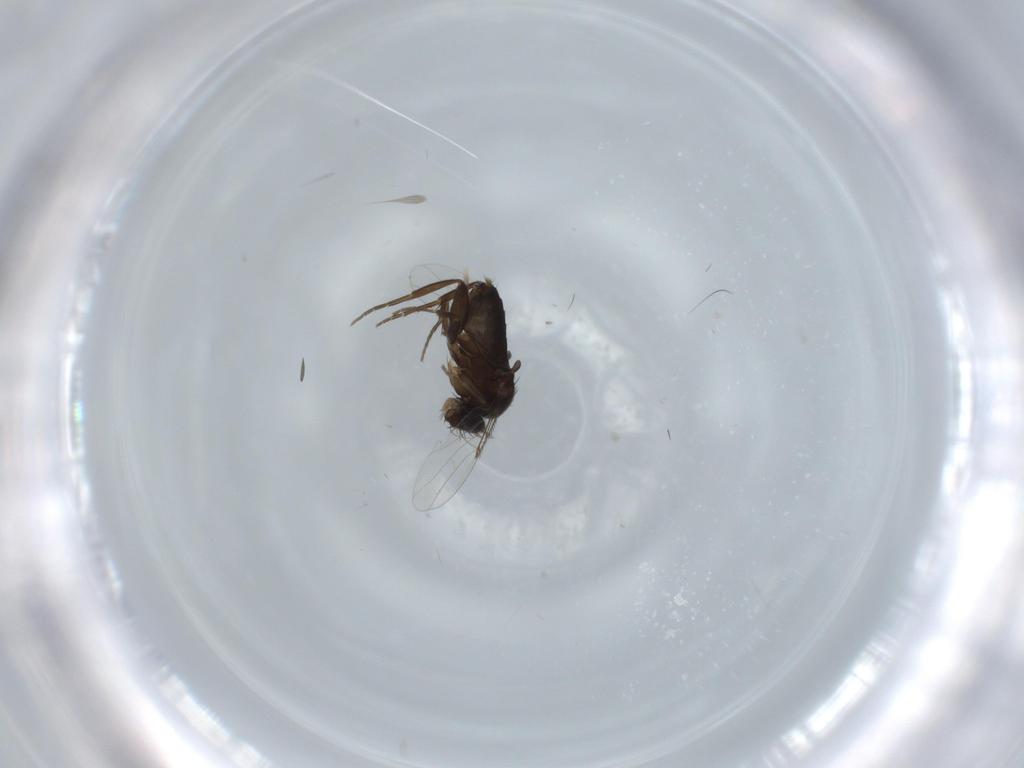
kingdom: Animalia
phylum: Arthropoda
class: Insecta
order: Diptera
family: Phoridae
